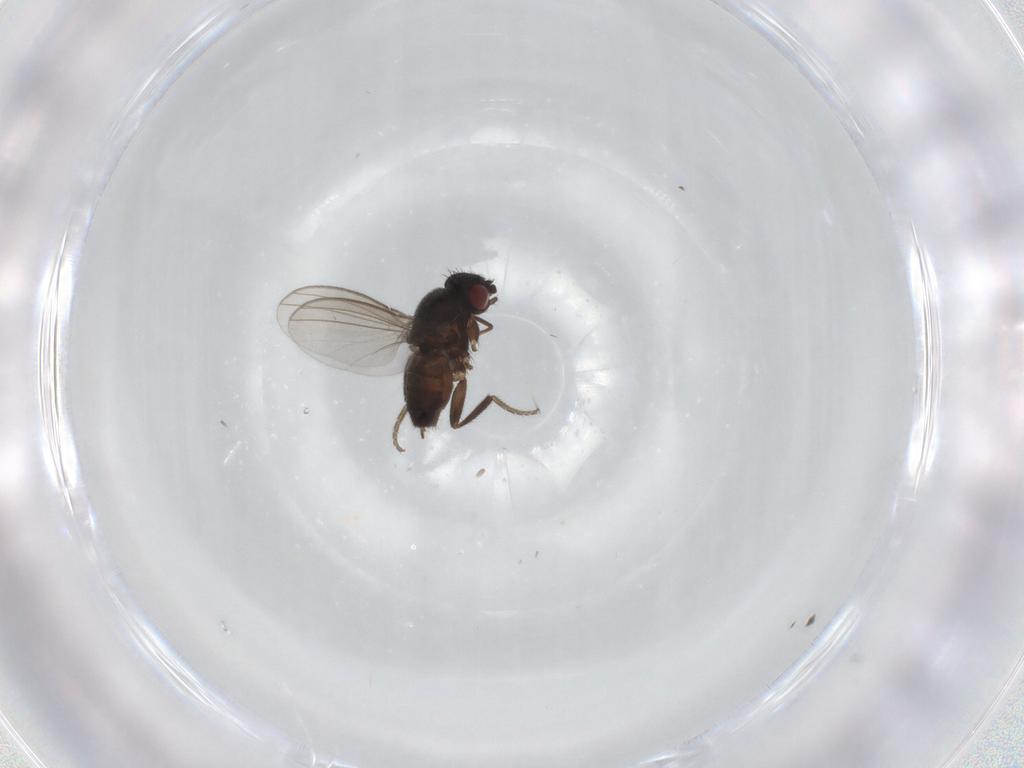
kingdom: Animalia
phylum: Arthropoda
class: Insecta
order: Diptera
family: Milichiidae
